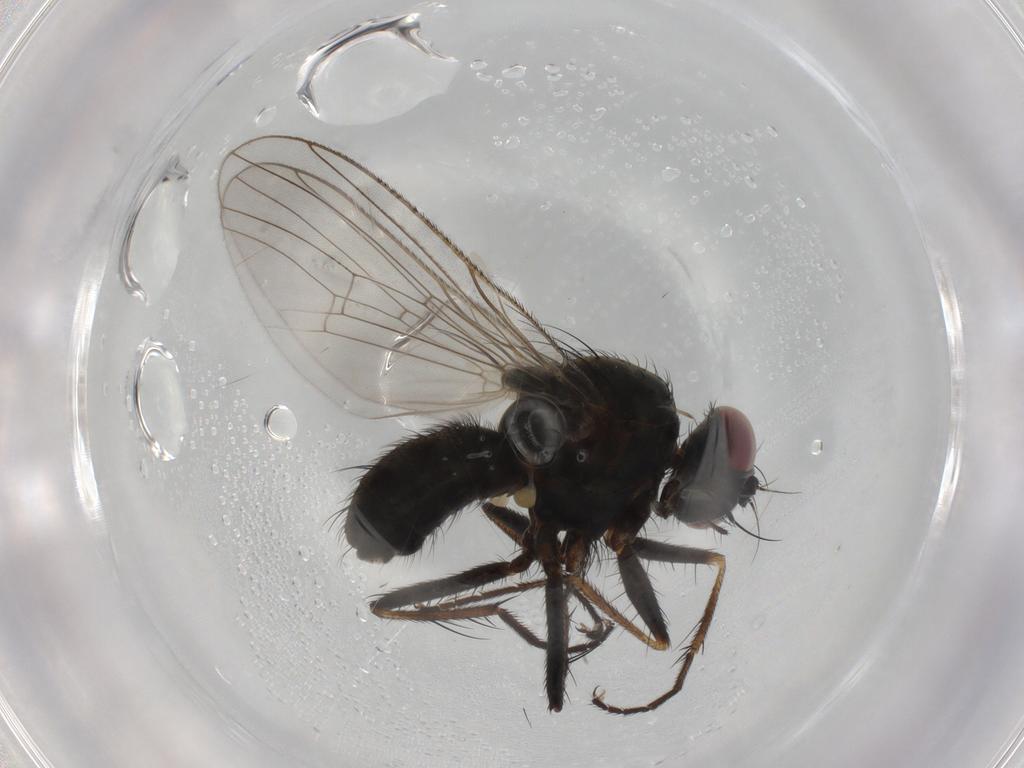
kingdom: Animalia
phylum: Arthropoda
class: Insecta
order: Diptera
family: Muscidae
